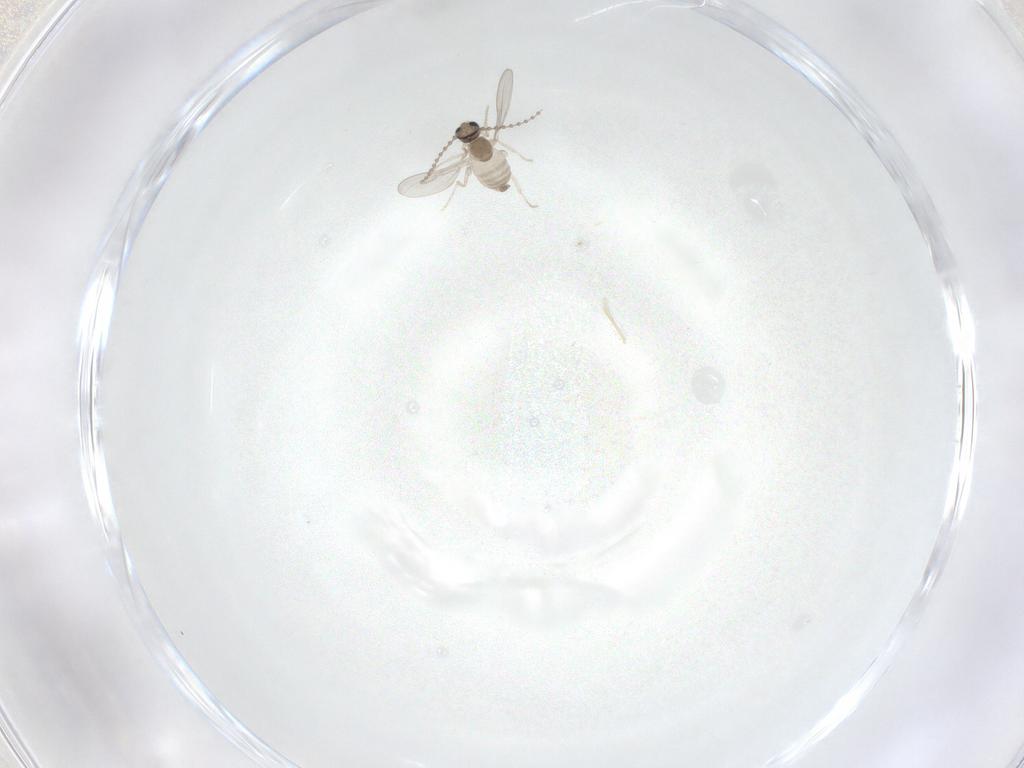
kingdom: Animalia
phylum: Arthropoda
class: Insecta
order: Diptera
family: Cecidomyiidae
